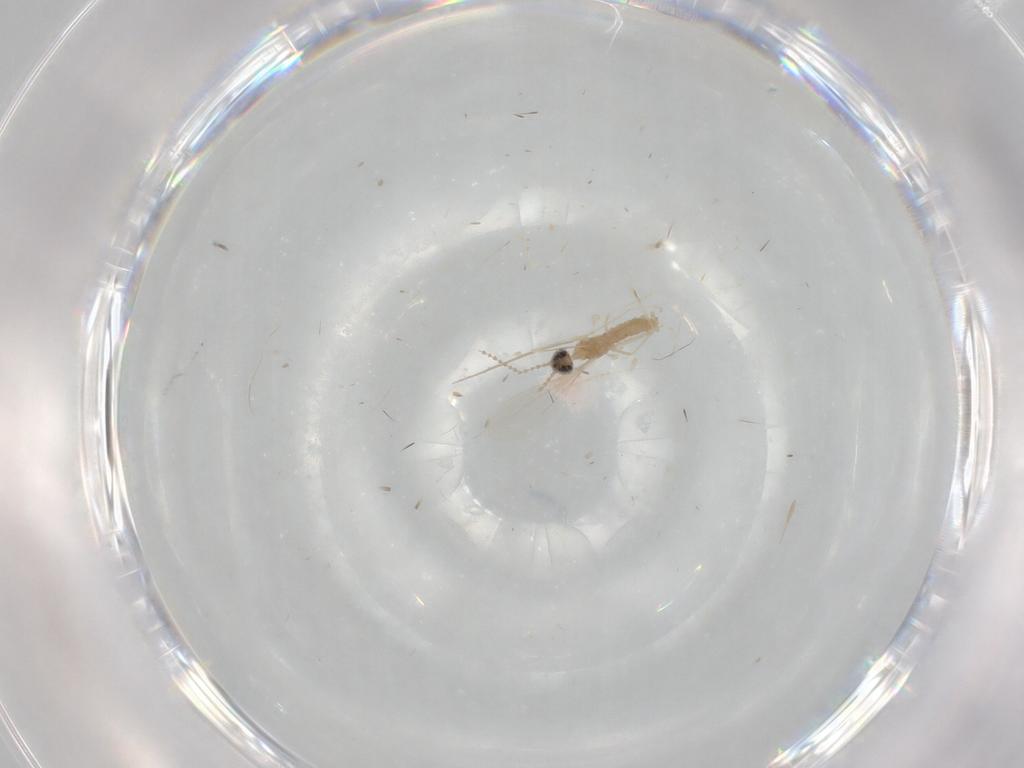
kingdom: Animalia
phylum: Arthropoda
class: Insecta
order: Diptera
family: Cecidomyiidae
